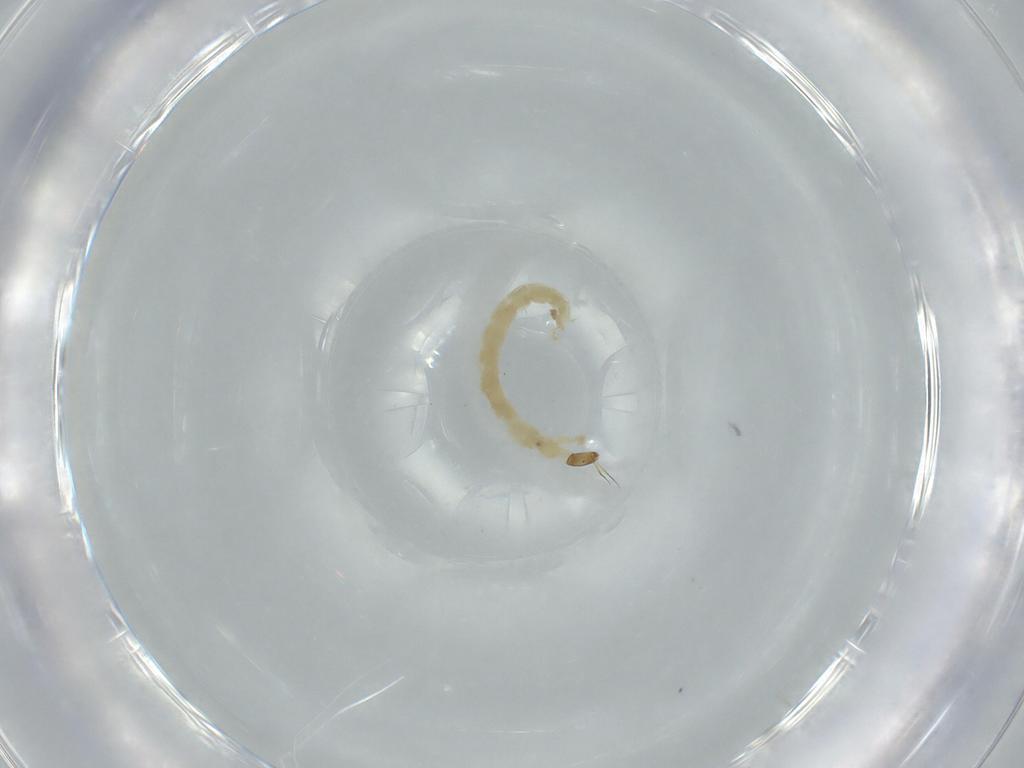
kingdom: Animalia
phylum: Arthropoda
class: Insecta
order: Diptera
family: Chironomidae
